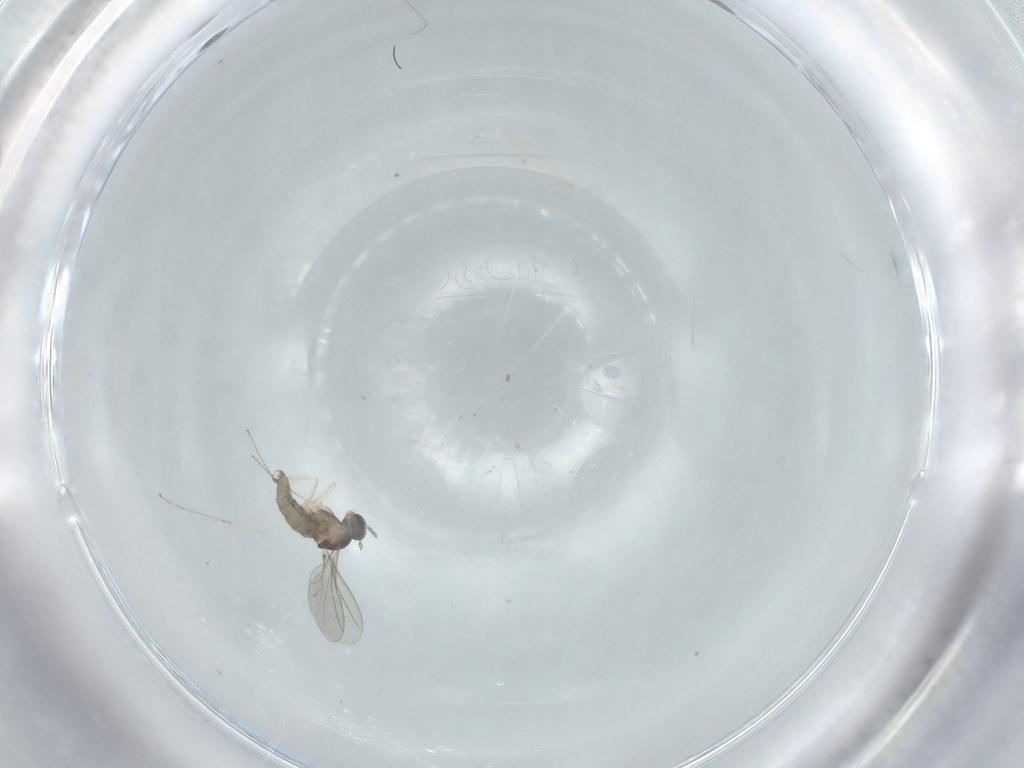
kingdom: Animalia
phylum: Arthropoda
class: Insecta
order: Diptera
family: Cecidomyiidae
